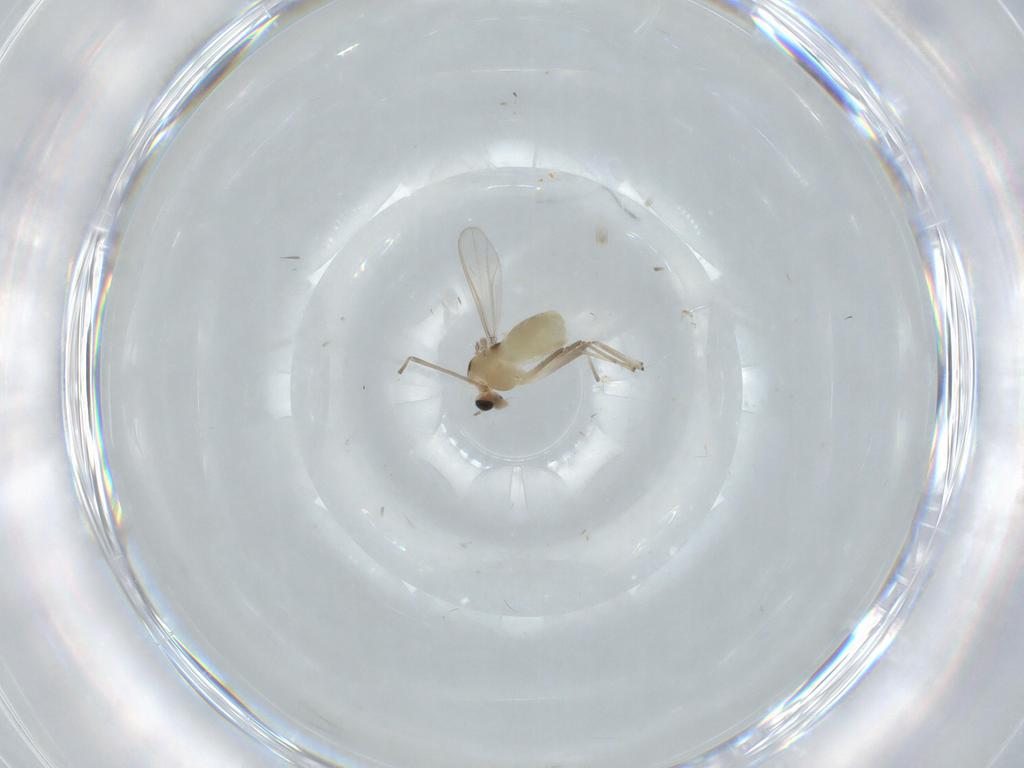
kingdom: Animalia
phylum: Arthropoda
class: Insecta
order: Diptera
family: Chironomidae
